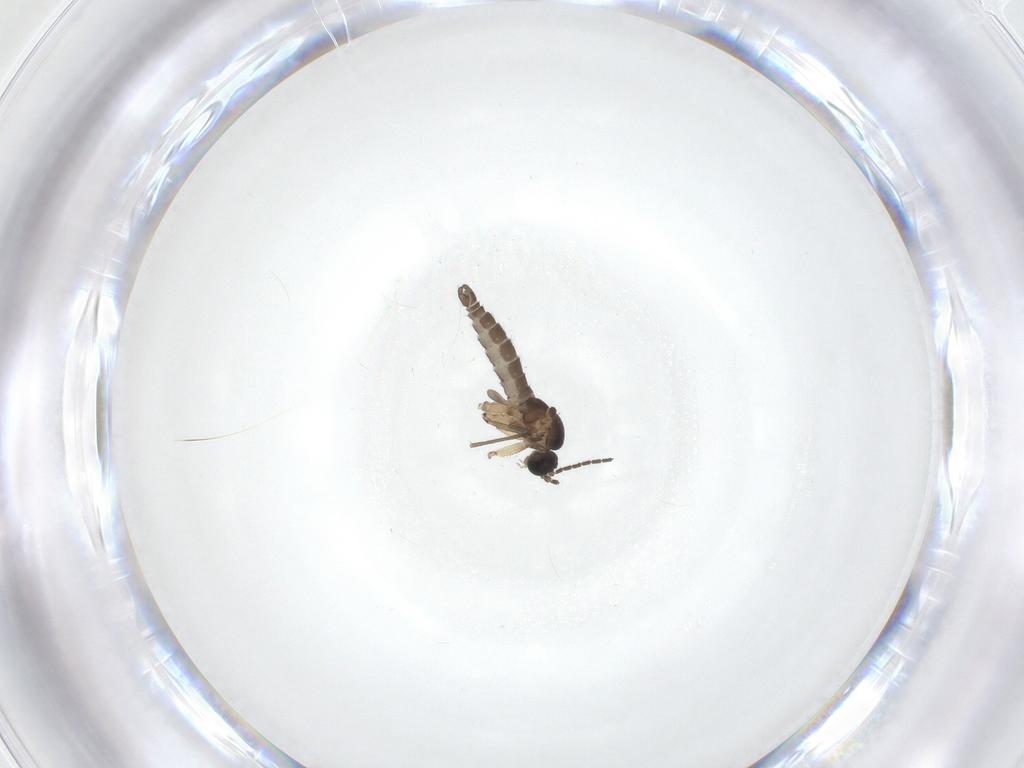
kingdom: Animalia
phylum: Arthropoda
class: Insecta
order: Diptera
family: Sciaridae
